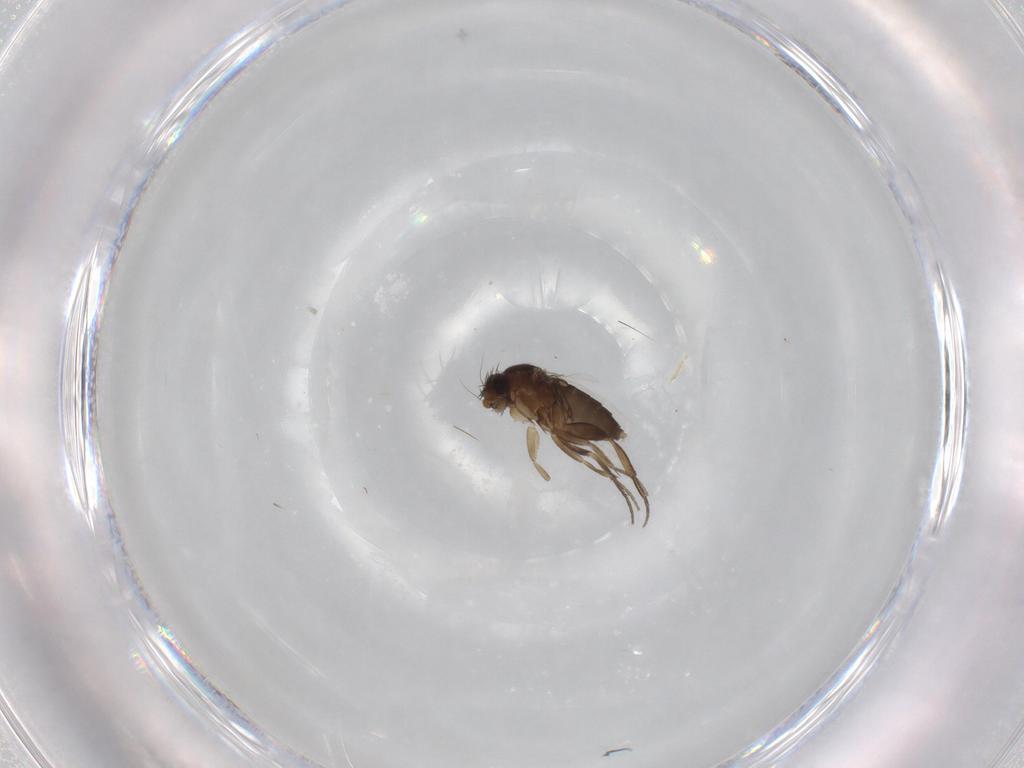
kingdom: Animalia
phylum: Arthropoda
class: Insecta
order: Diptera
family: Phoridae
